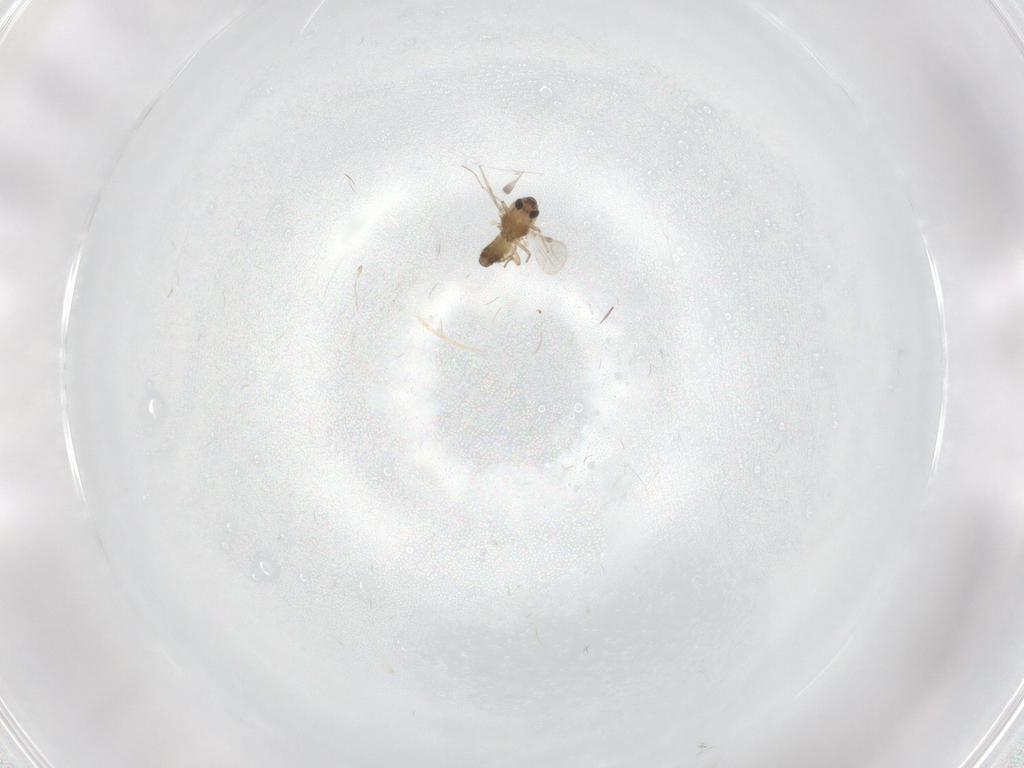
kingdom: Animalia
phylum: Arthropoda
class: Insecta
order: Diptera
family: Chironomidae
